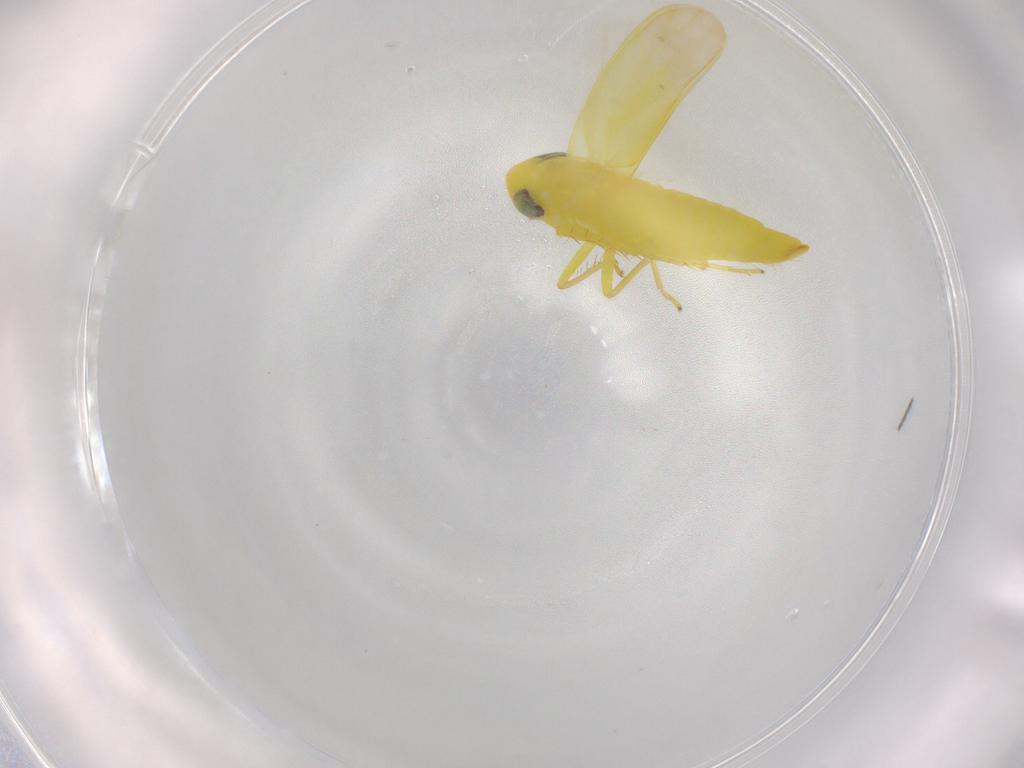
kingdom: Animalia
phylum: Arthropoda
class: Insecta
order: Hemiptera
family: Cicadellidae
